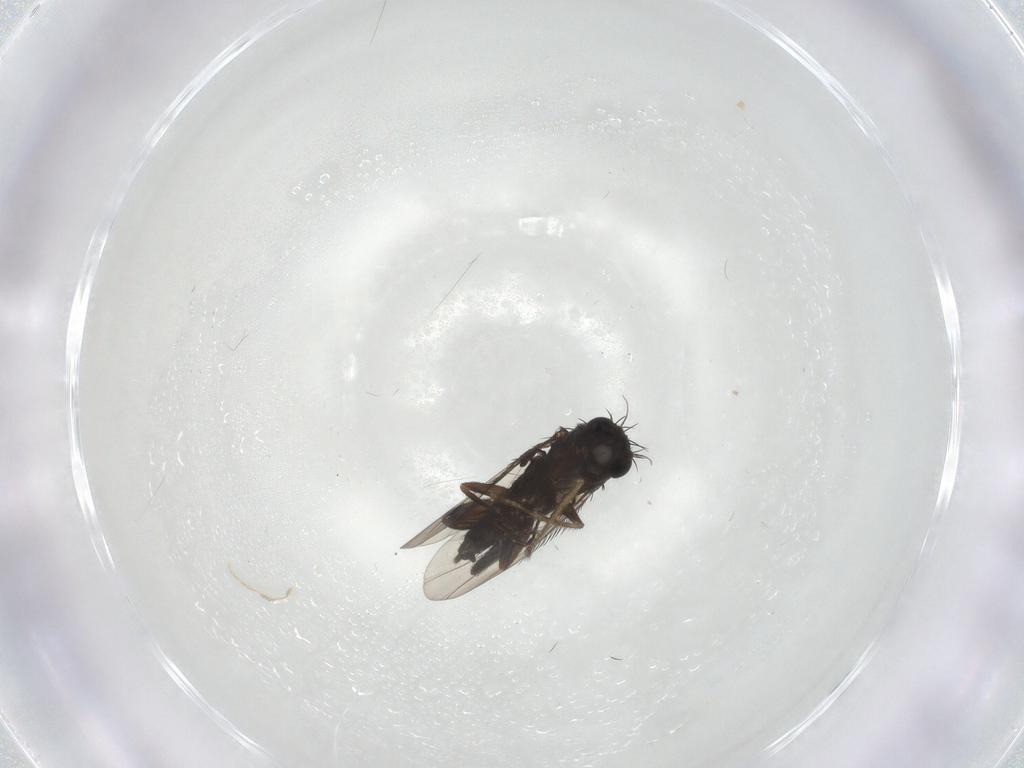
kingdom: Animalia
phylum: Arthropoda
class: Insecta
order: Diptera
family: Phoridae
